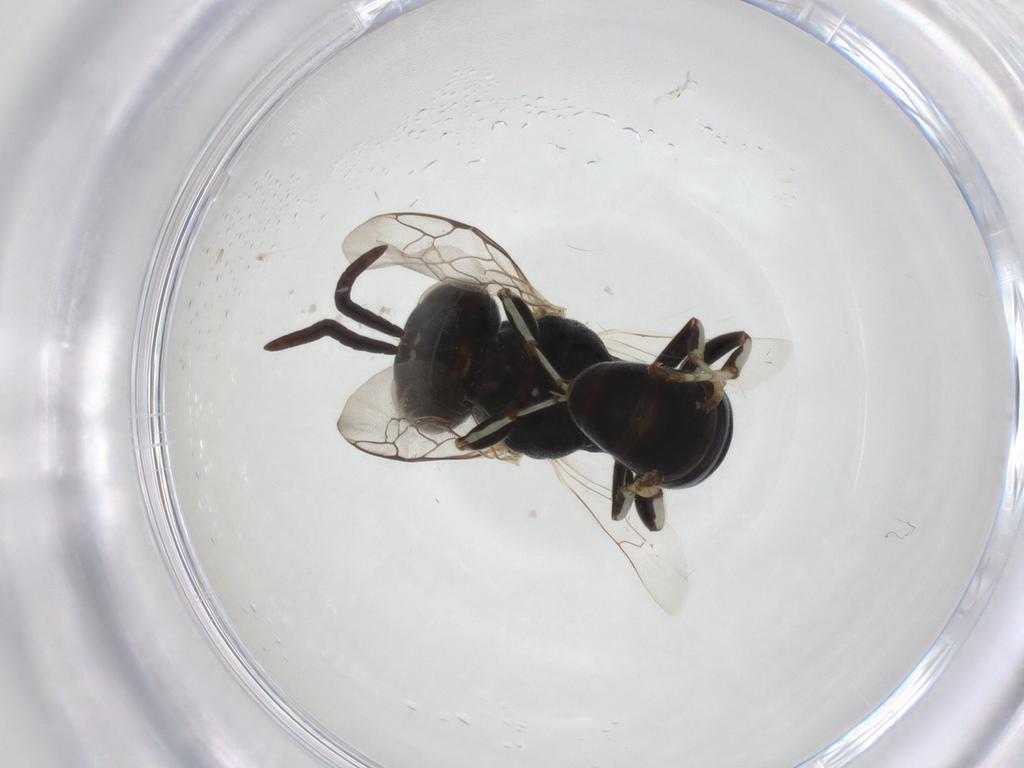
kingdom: Animalia
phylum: Arthropoda
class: Insecta
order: Hymenoptera
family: Crabronidae
